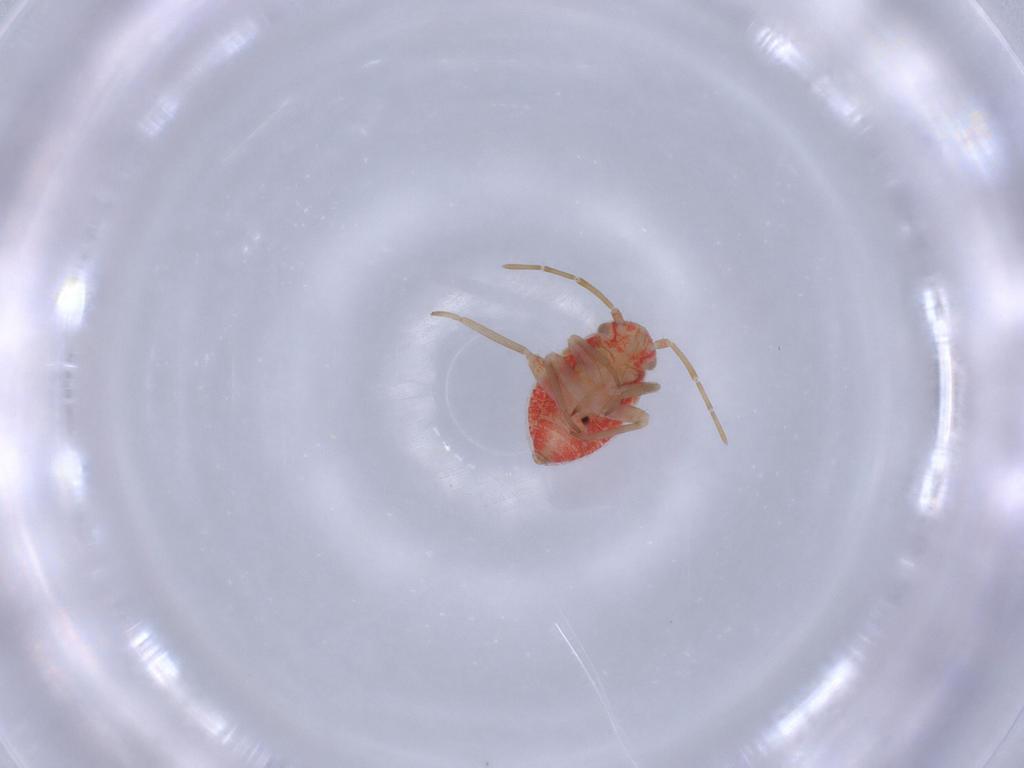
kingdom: Animalia
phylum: Arthropoda
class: Insecta
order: Hemiptera
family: Miridae
